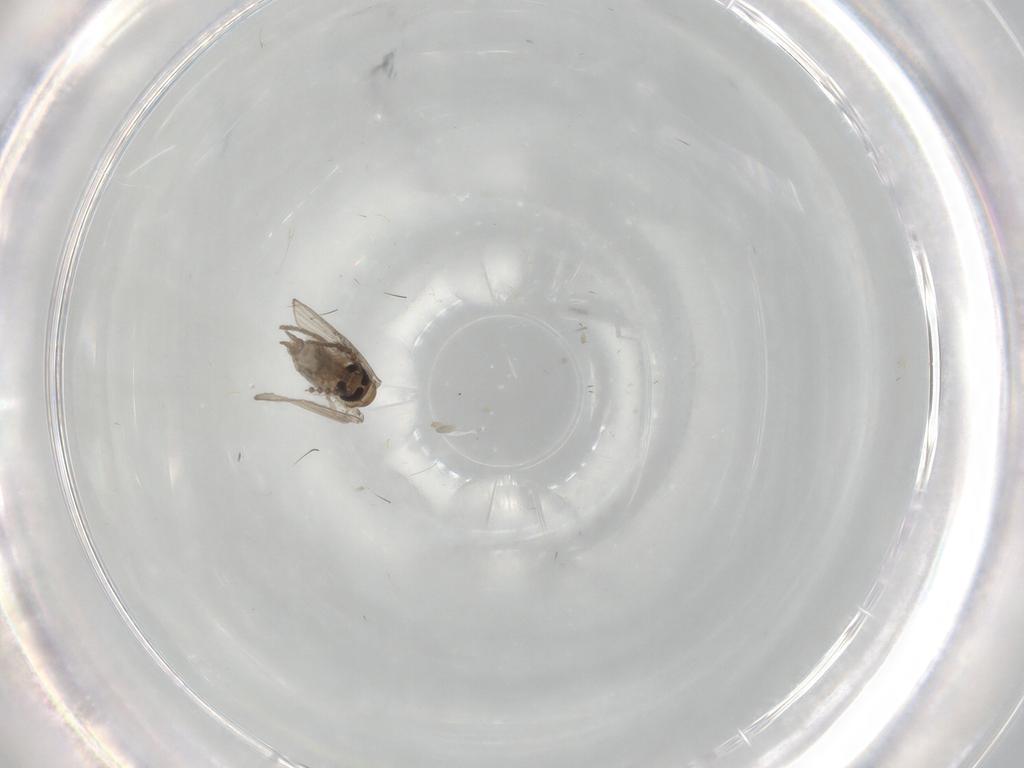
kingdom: Animalia
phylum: Arthropoda
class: Insecta
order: Diptera
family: Psychodidae
